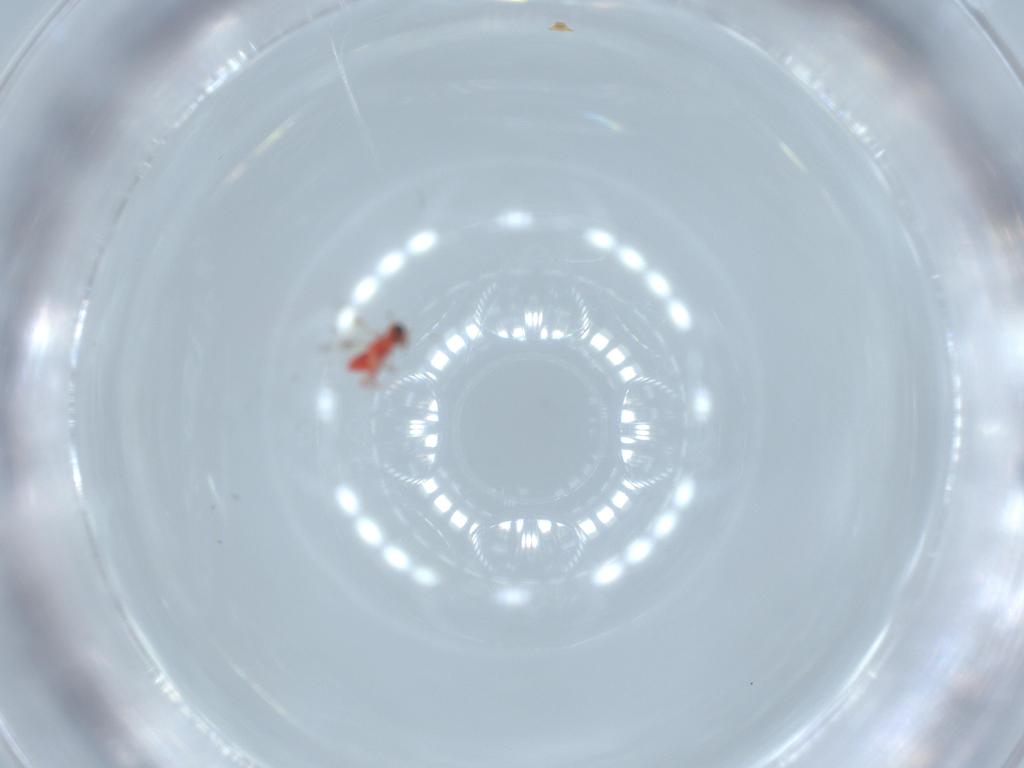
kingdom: Animalia
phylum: Arthropoda
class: Insecta
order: Hymenoptera
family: Trichogrammatidae
